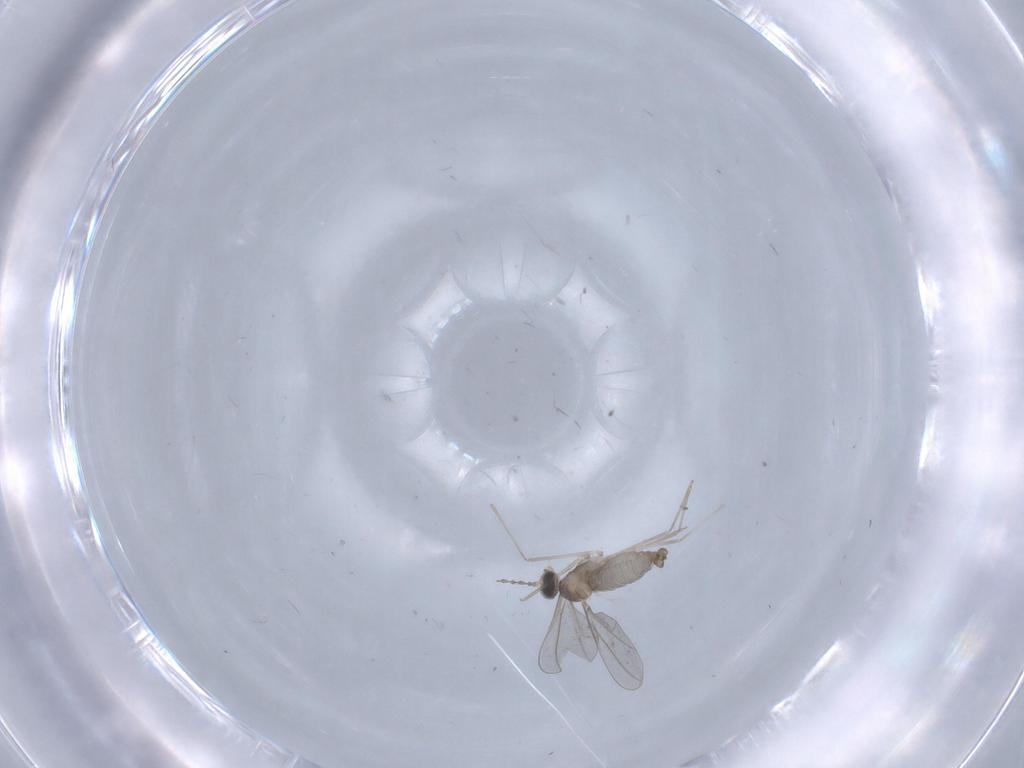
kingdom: Animalia
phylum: Arthropoda
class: Insecta
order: Diptera
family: Cecidomyiidae
